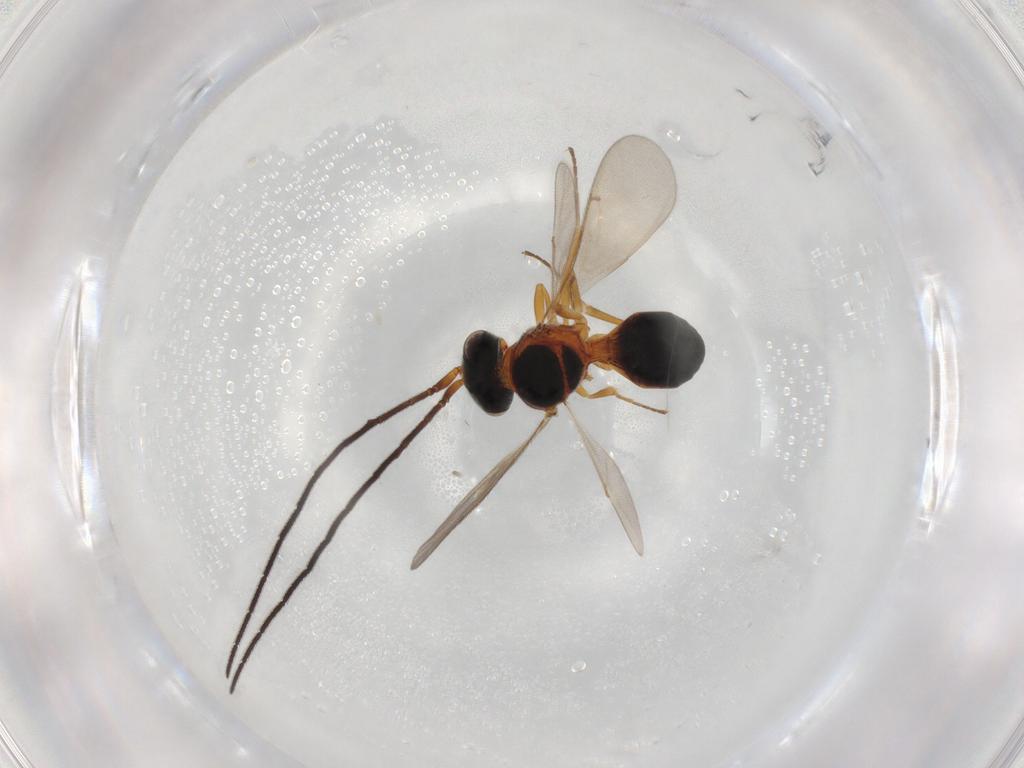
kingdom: Animalia
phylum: Arthropoda
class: Insecta
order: Hymenoptera
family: Scelionidae
